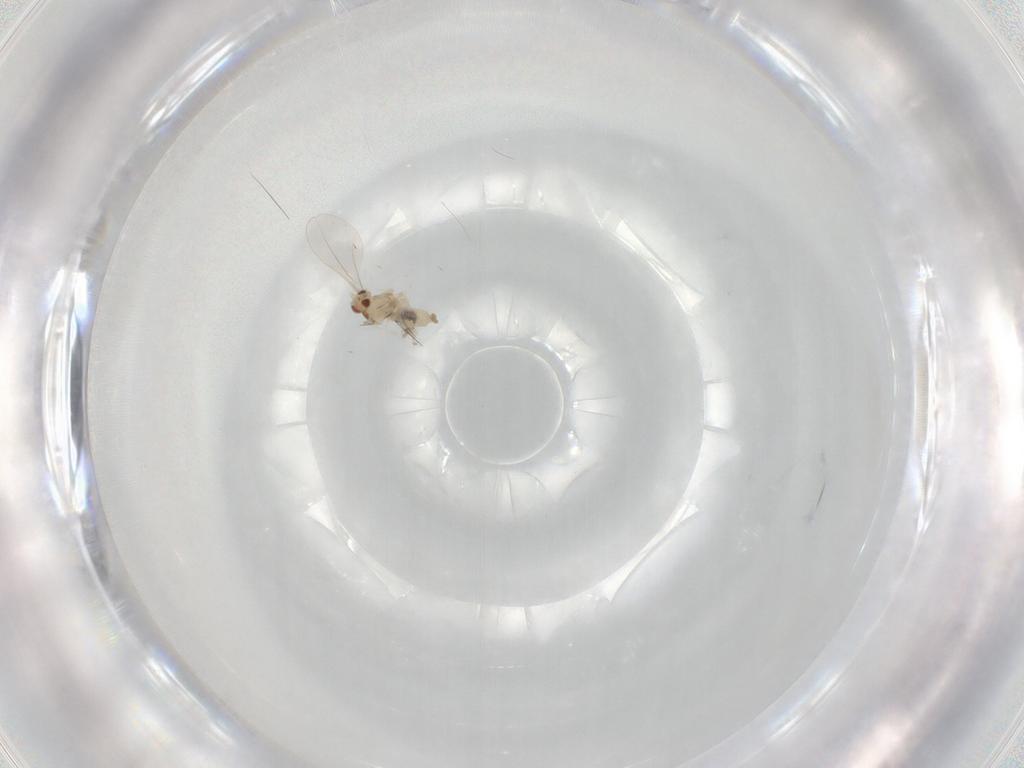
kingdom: Animalia
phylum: Arthropoda
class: Insecta
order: Diptera
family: Cecidomyiidae
